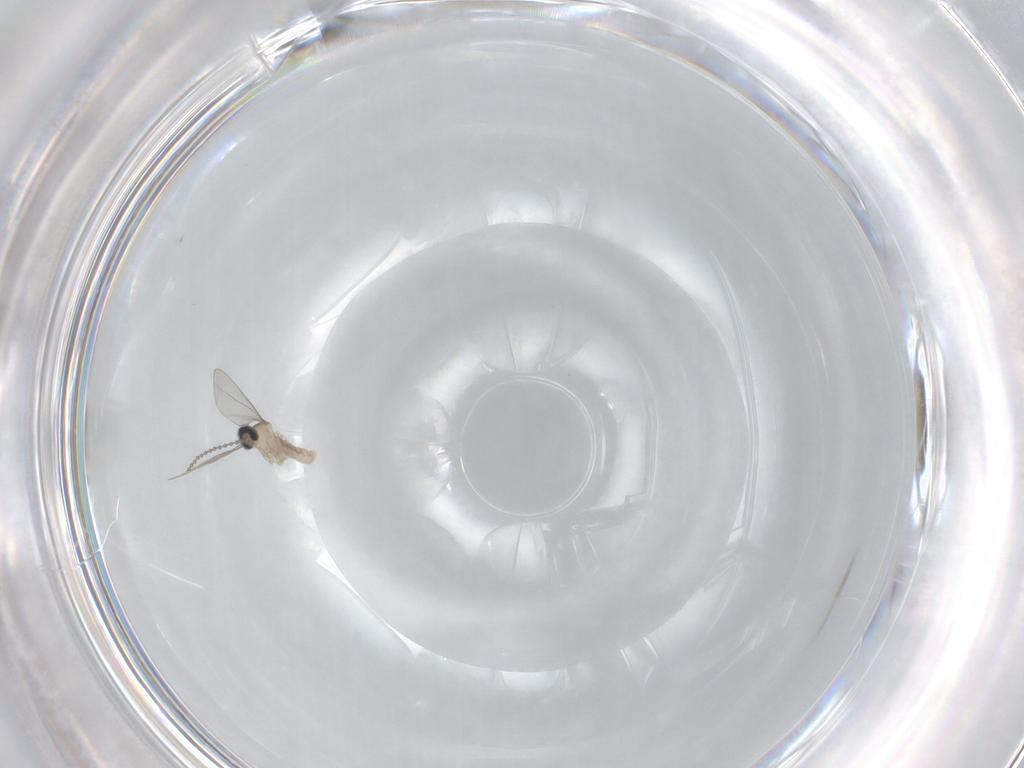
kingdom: Animalia
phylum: Arthropoda
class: Insecta
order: Diptera
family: Cecidomyiidae
